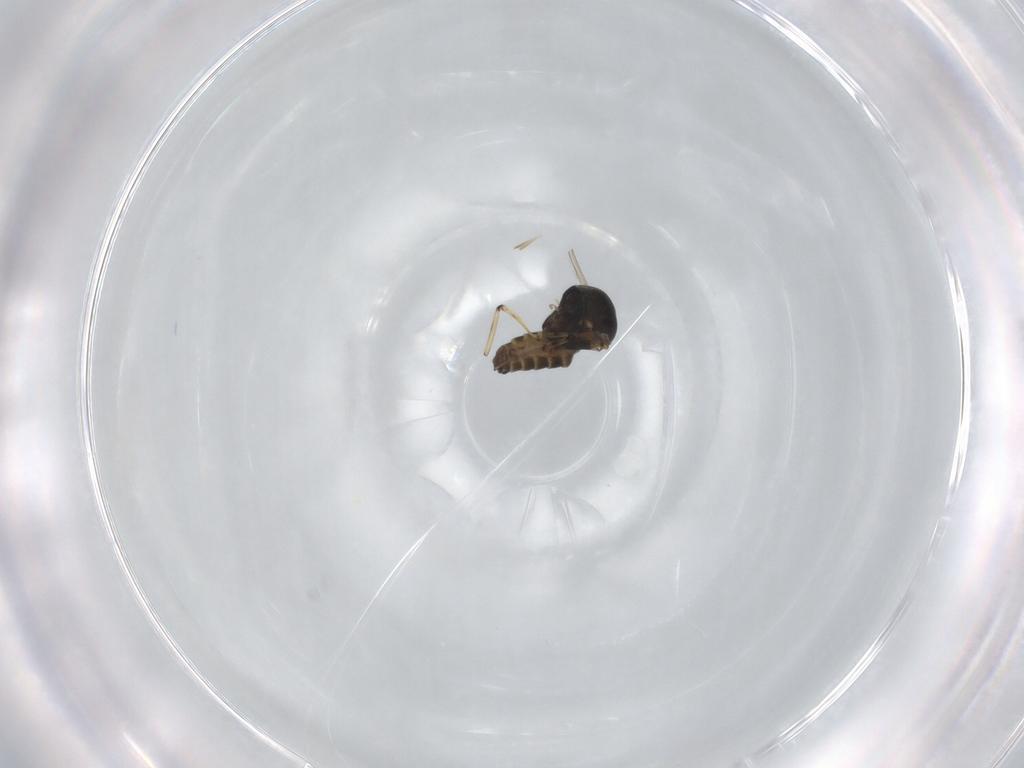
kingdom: Animalia
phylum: Arthropoda
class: Insecta
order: Diptera
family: Ceratopogonidae
